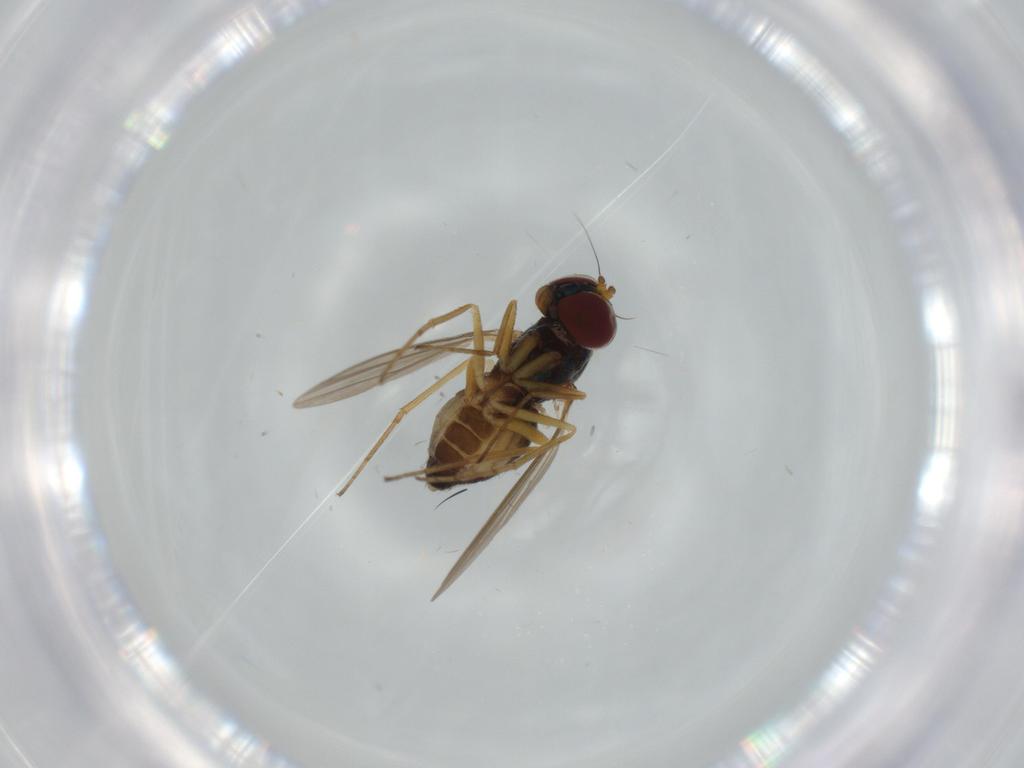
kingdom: Animalia
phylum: Arthropoda
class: Insecta
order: Diptera
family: Dolichopodidae
